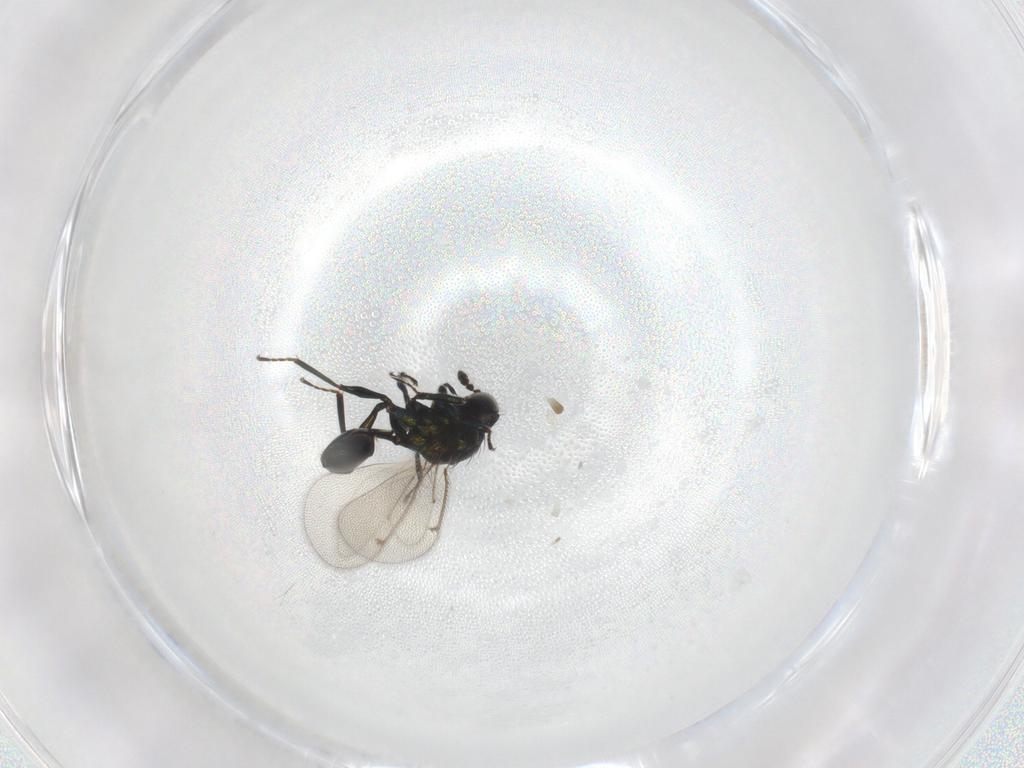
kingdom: Animalia
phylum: Arthropoda
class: Insecta
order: Hymenoptera
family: Eulophidae
